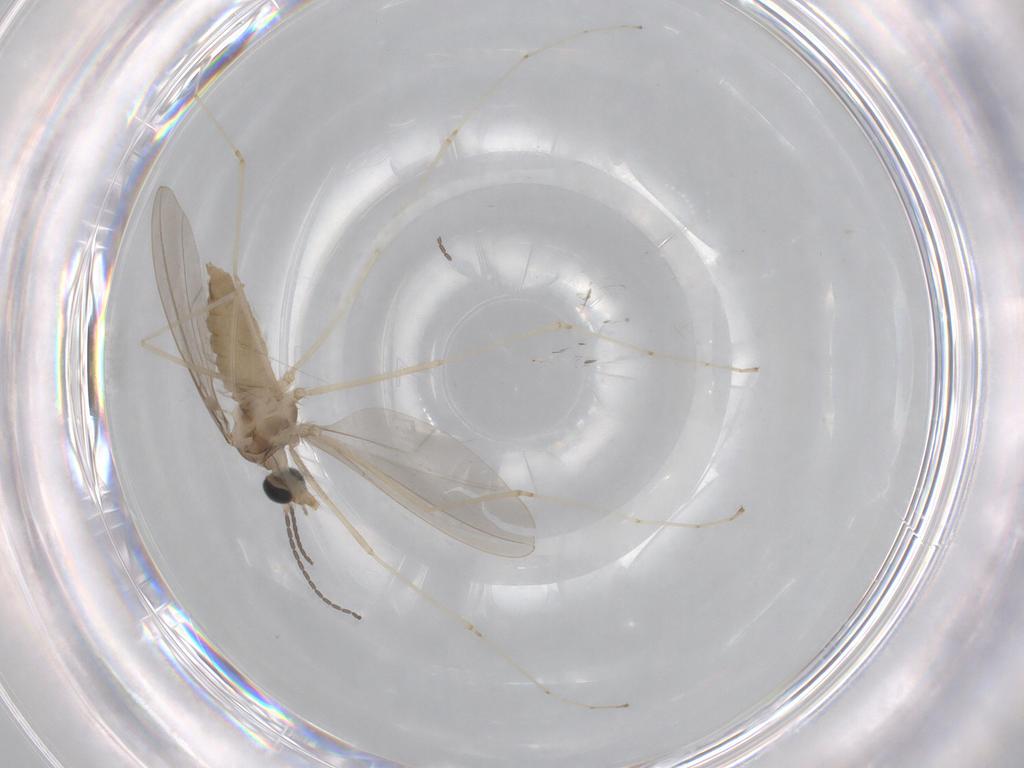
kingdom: Animalia
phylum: Arthropoda
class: Insecta
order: Diptera
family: Cecidomyiidae
